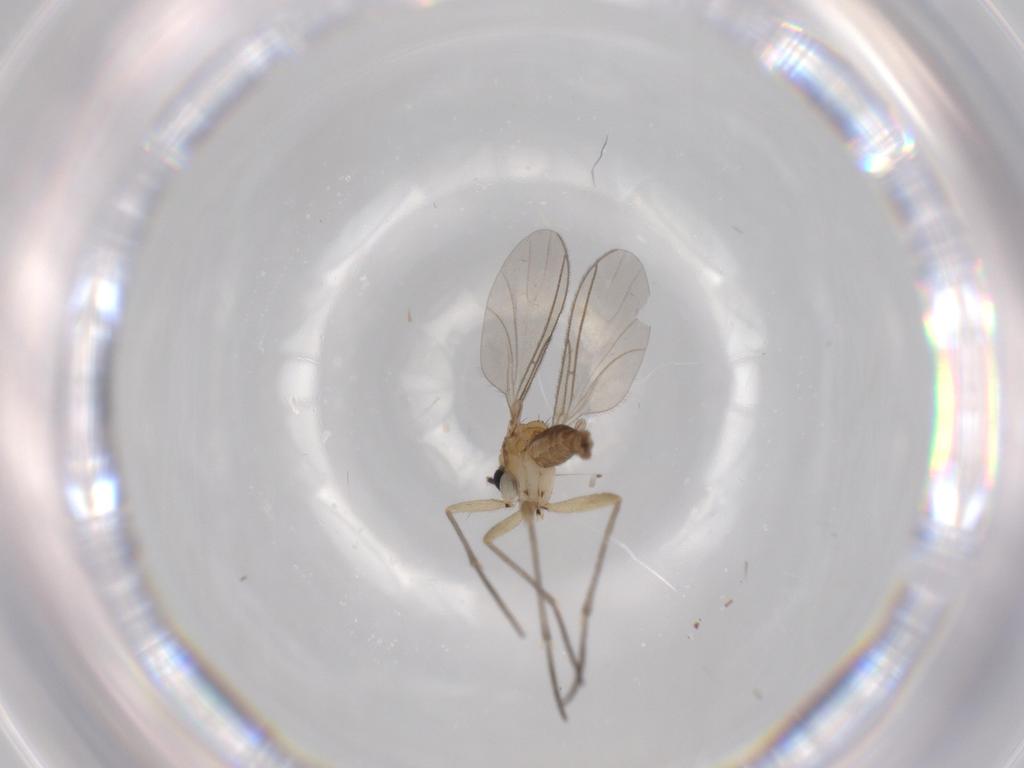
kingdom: Animalia
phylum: Arthropoda
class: Insecta
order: Diptera
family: Sciaridae
